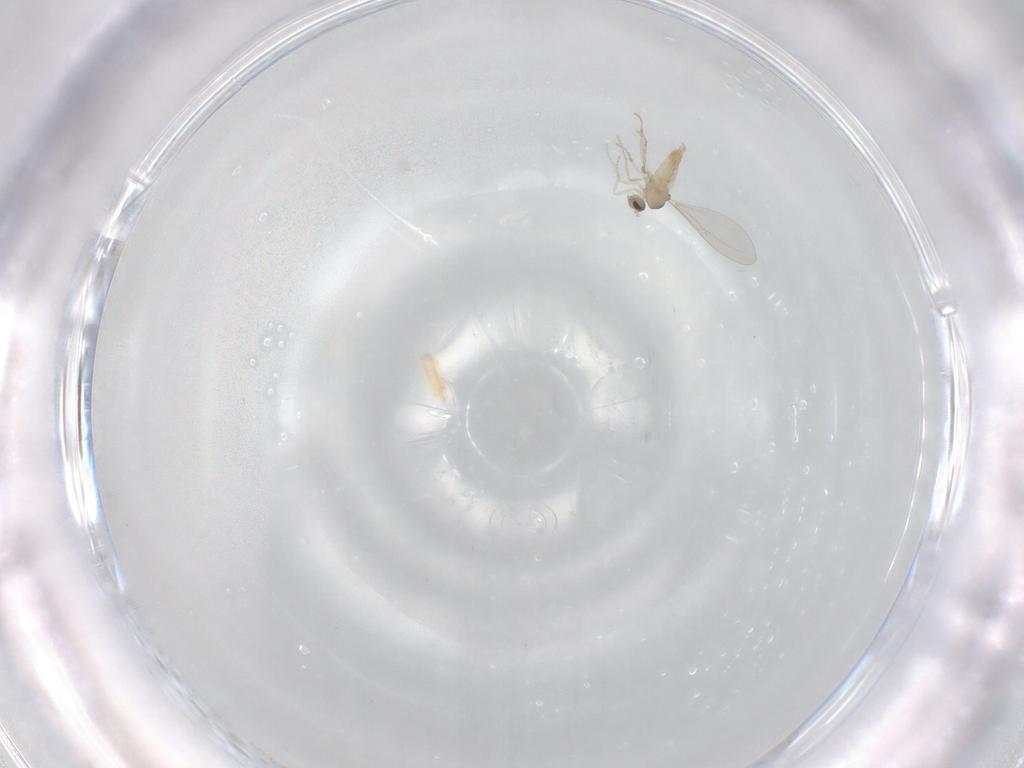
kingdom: Animalia
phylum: Arthropoda
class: Insecta
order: Diptera
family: Cecidomyiidae
